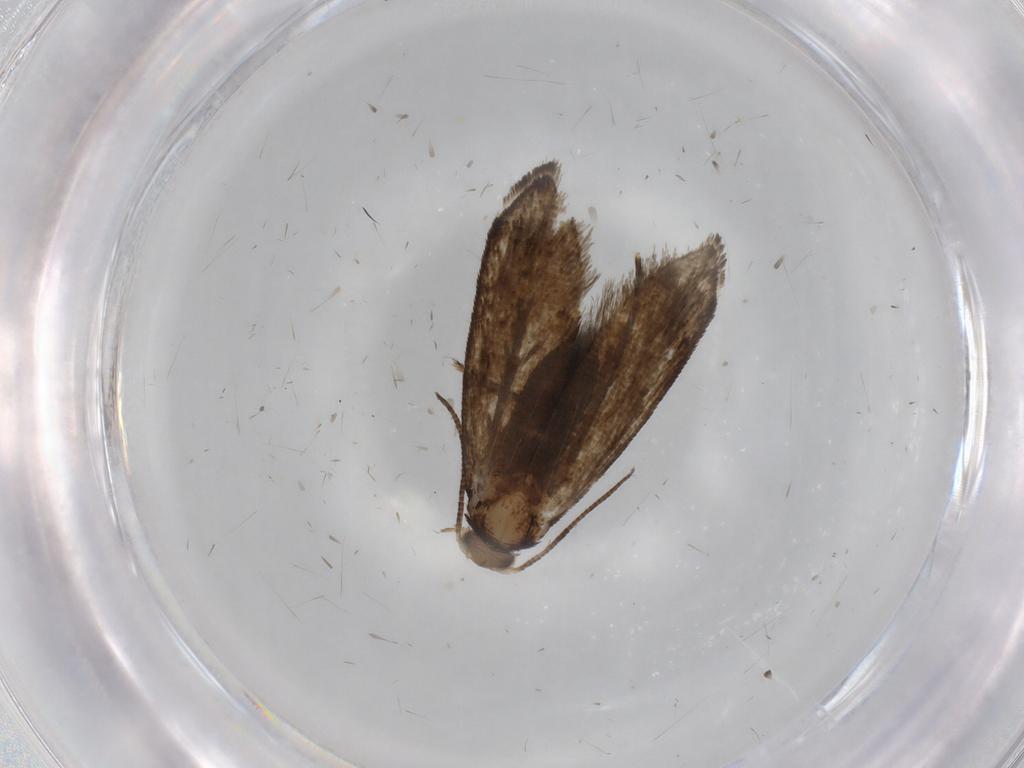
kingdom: Animalia
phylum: Arthropoda
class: Insecta
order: Lepidoptera
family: Crambidae
